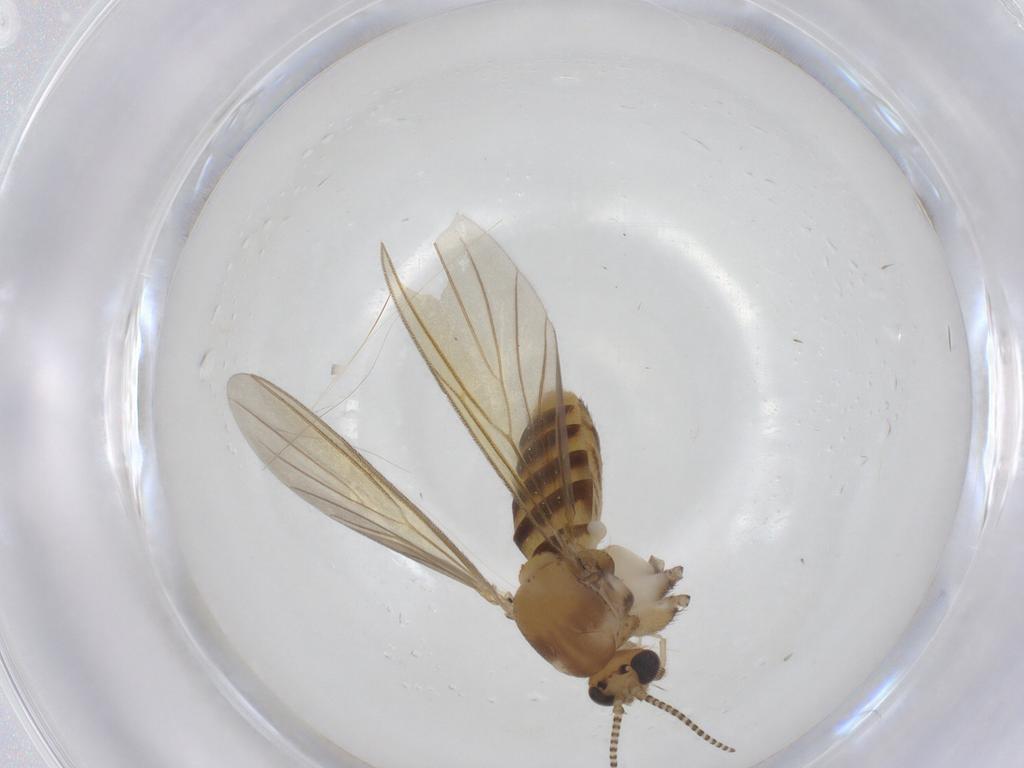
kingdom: Animalia
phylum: Arthropoda
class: Insecta
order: Diptera
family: Mycetophilidae
